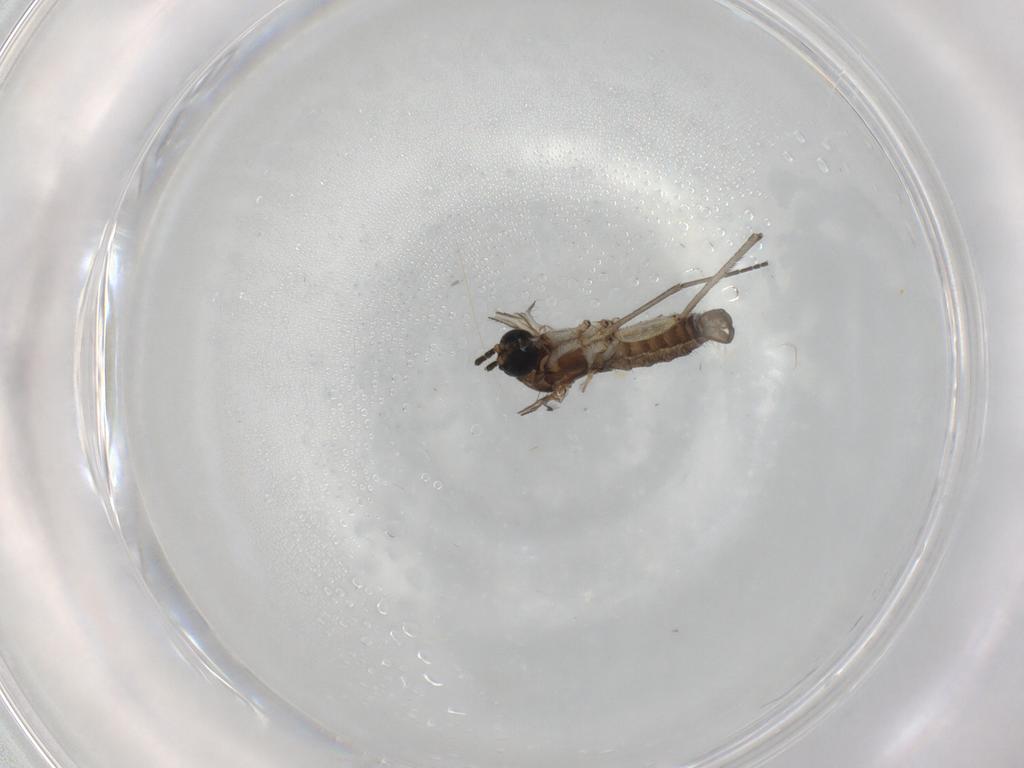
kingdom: Animalia
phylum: Arthropoda
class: Insecta
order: Diptera
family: Sciaridae
